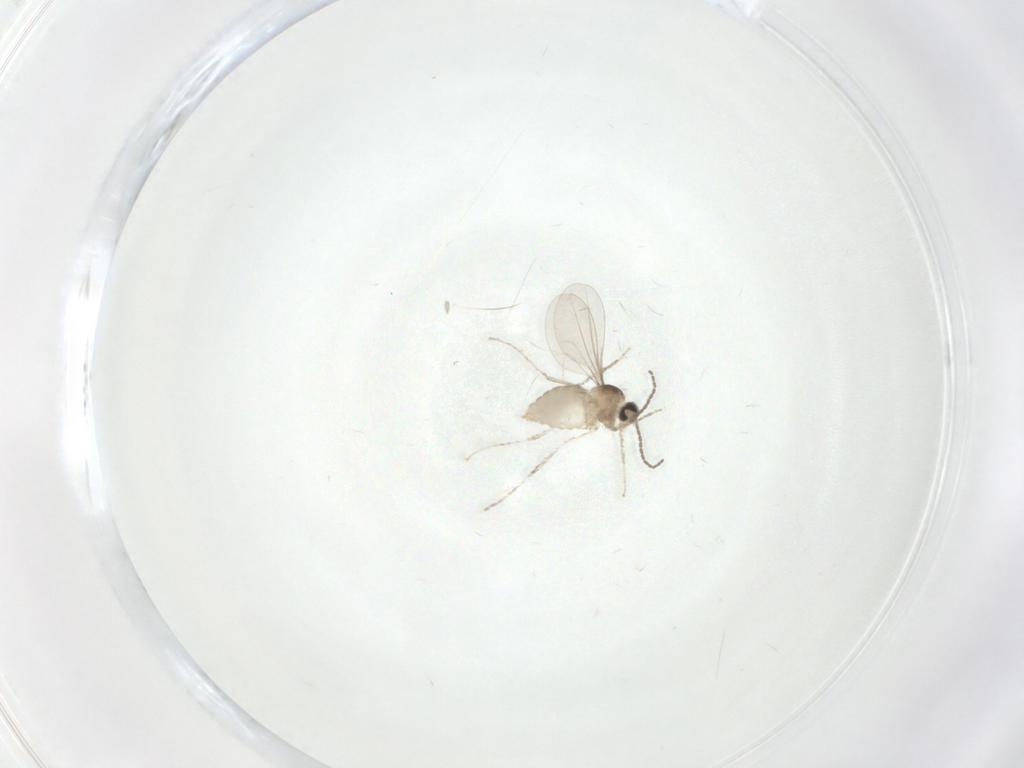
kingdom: Animalia
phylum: Arthropoda
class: Insecta
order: Diptera
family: Cecidomyiidae
